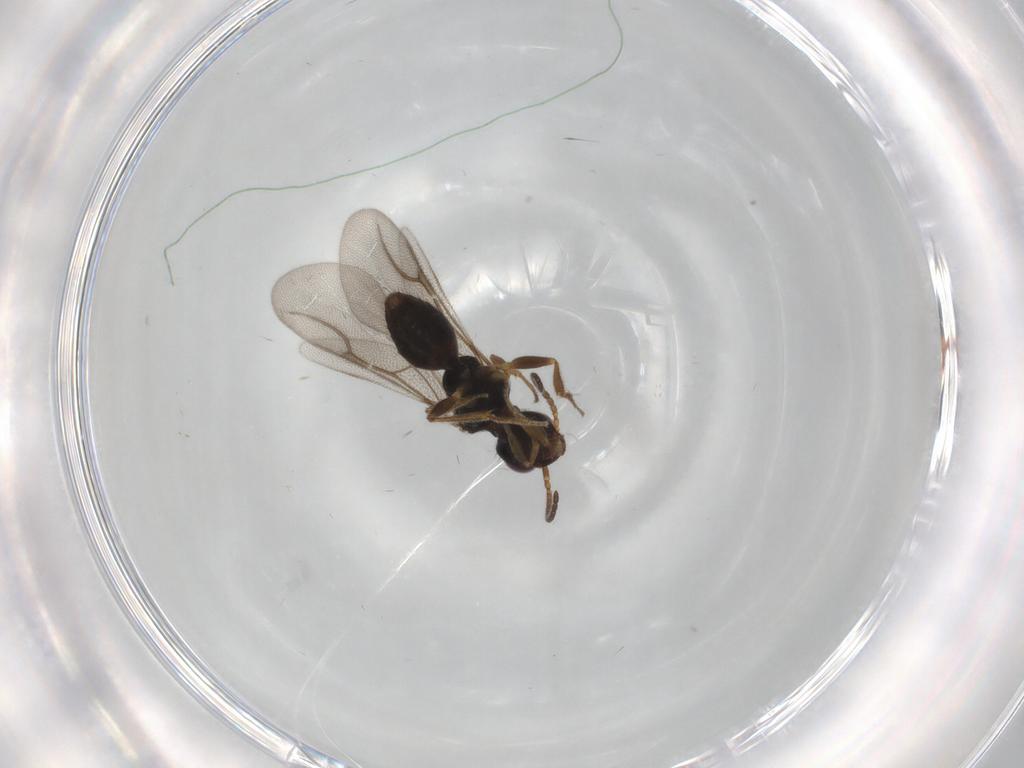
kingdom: Animalia
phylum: Arthropoda
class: Insecta
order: Hymenoptera
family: Bethylidae
